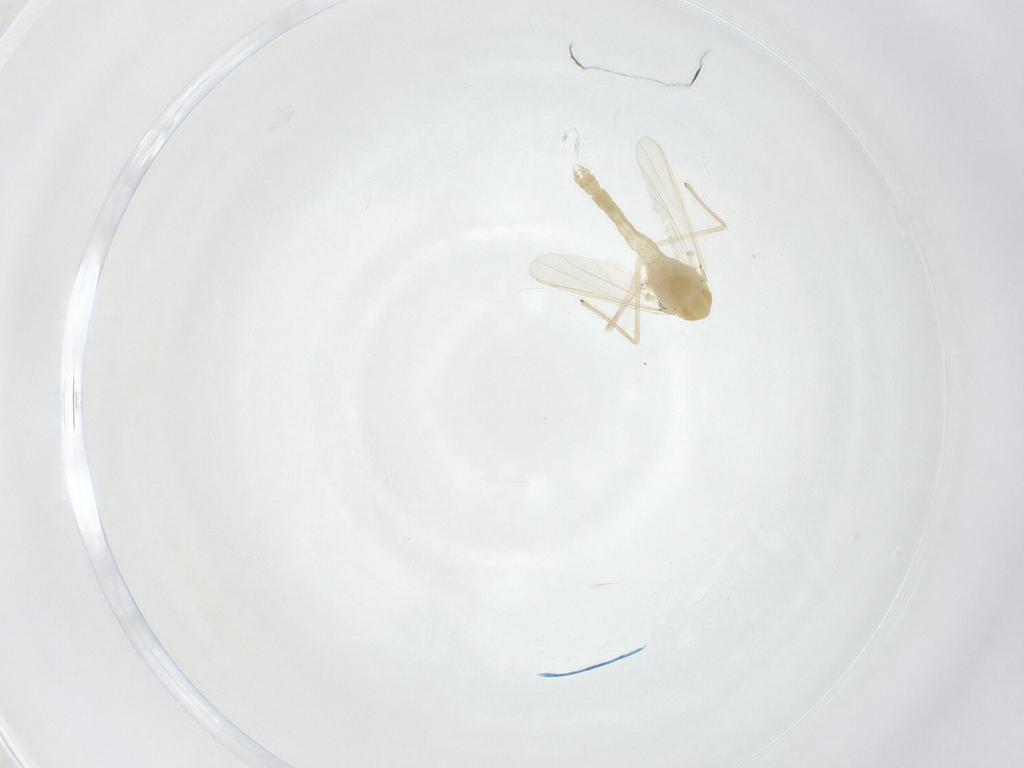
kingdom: Animalia
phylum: Arthropoda
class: Insecta
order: Diptera
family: Chironomidae
